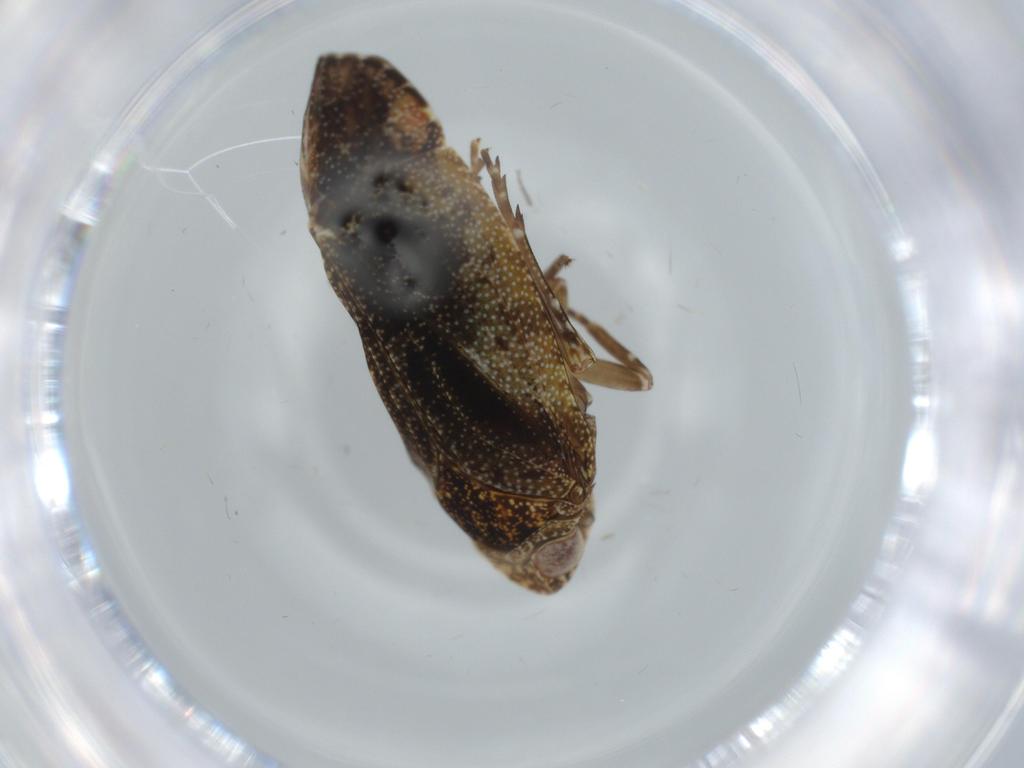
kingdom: Animalia
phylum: Arthropoda
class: Insecta
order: Hemiptera
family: Achilidae
